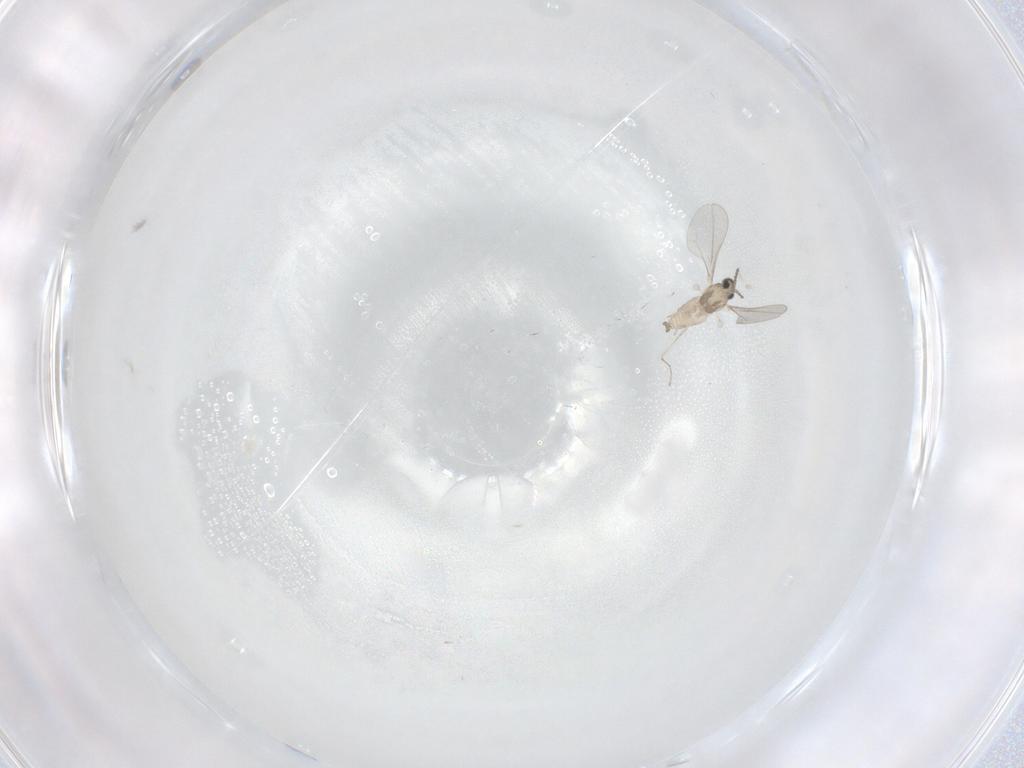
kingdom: Animalia
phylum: Arthropoda
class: Insecta
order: Diptera
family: Cecidomyiidae
